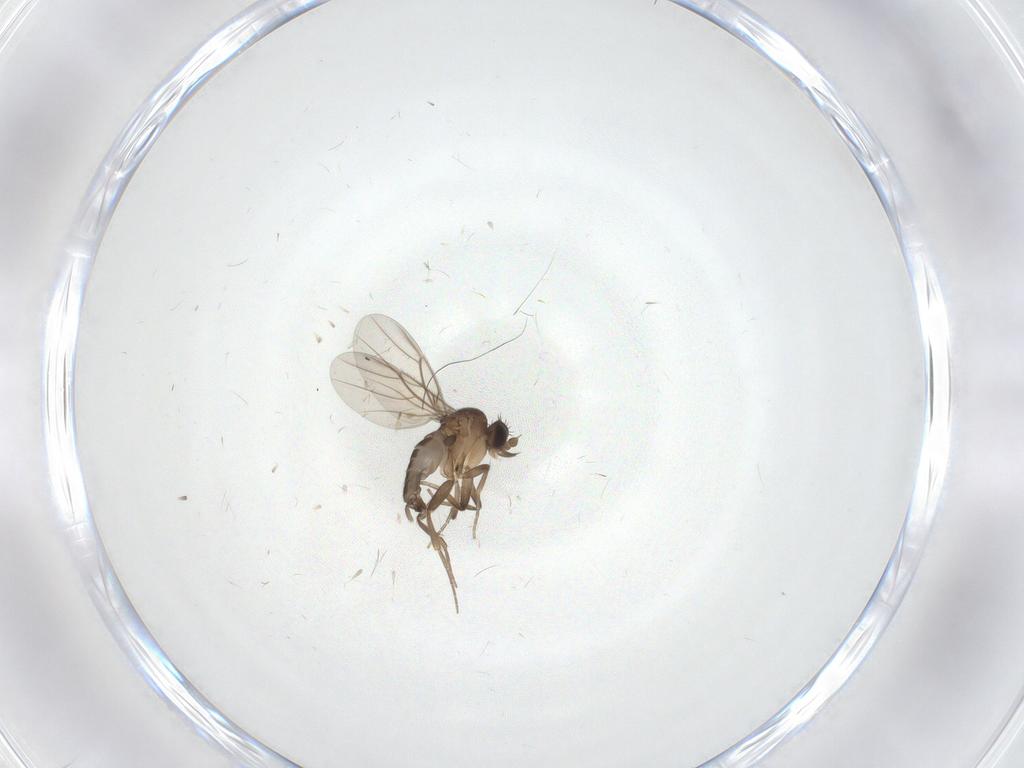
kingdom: Animalia
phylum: Arthropoda
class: Insecta
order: Diptera
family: Phoridae
